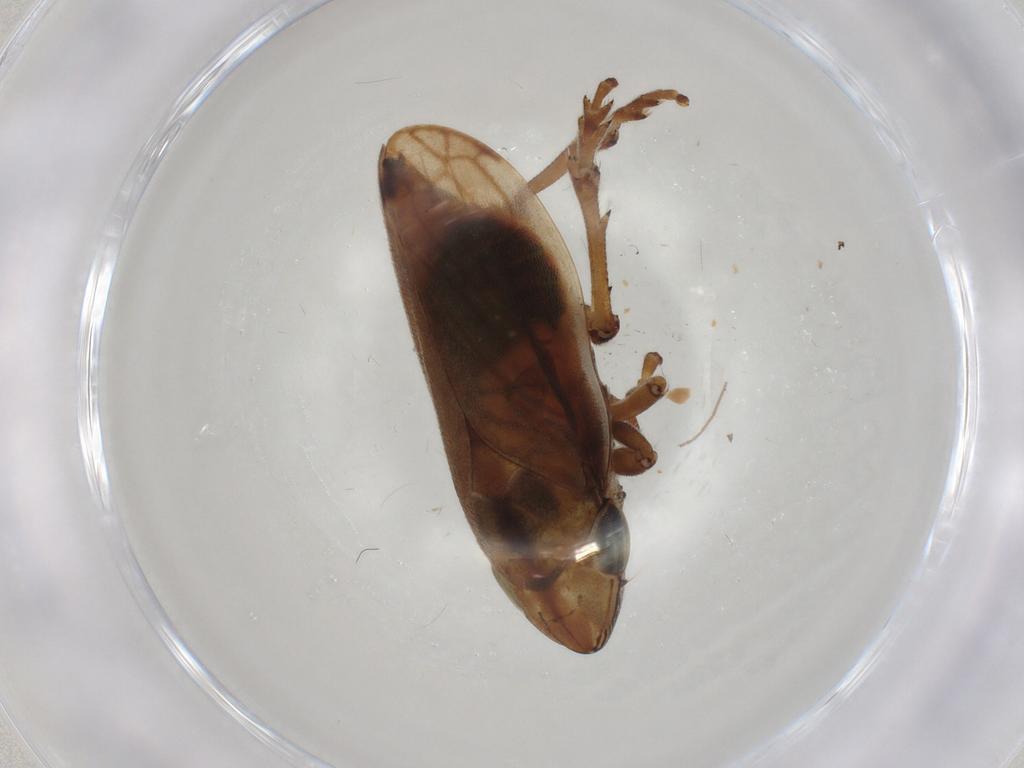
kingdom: Animalia
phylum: Arthropoda
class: Insecta
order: Hemiptera
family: Aphrophoridae
